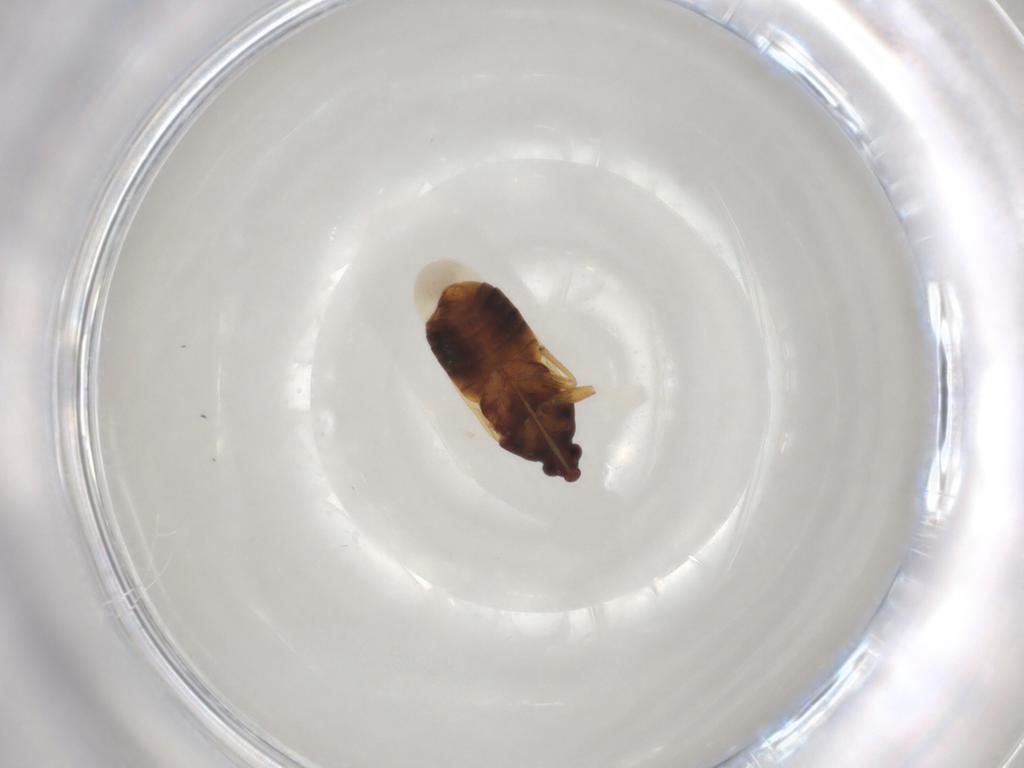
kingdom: Animalia
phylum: Arthropoda
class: Insecta
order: Hemiptera
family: Anthocoridae
